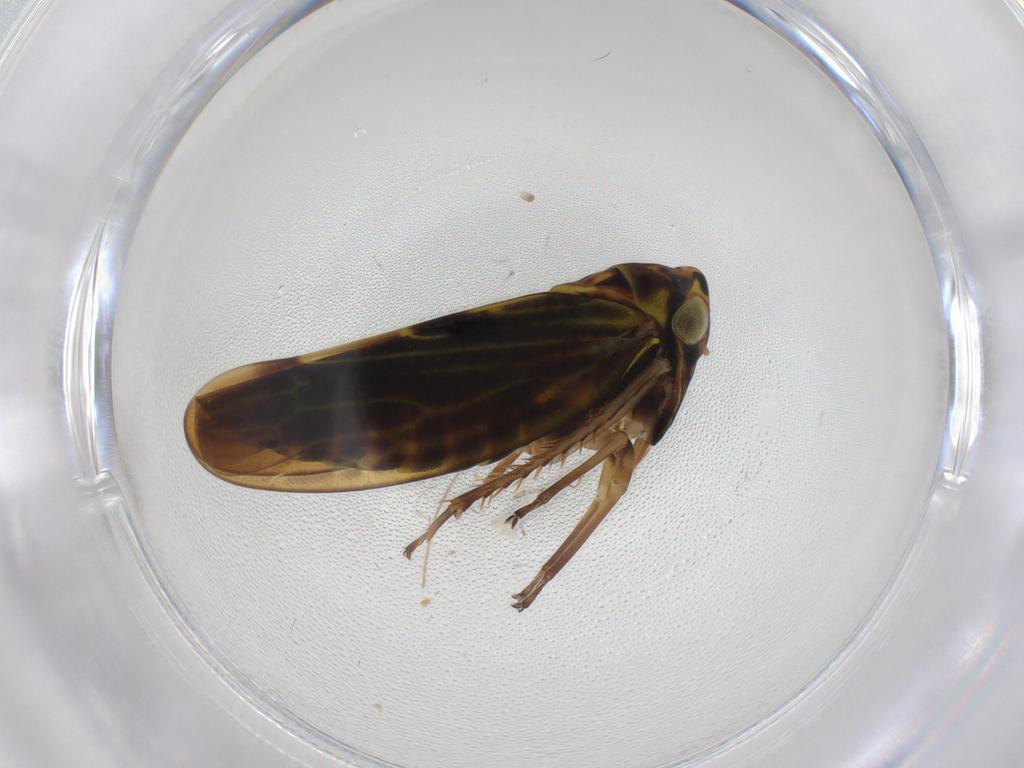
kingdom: Animalia
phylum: Arthropoda
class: Insecta
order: Hemiptera
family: Cicadellidae
